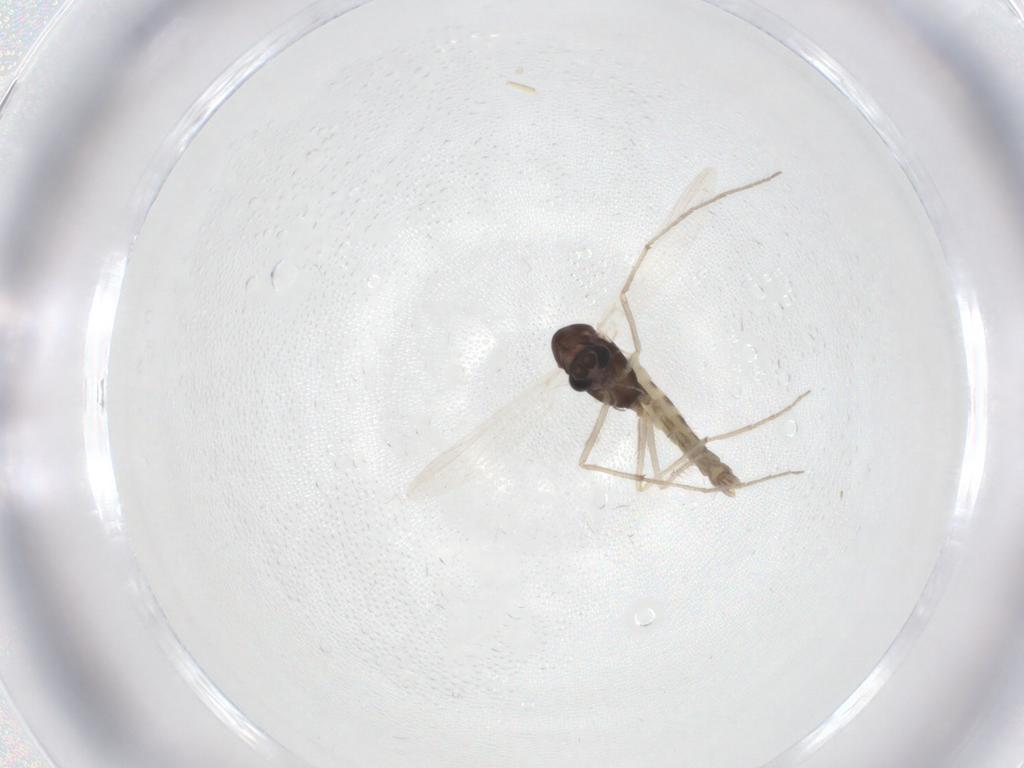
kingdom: Animalia
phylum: Arthropoda
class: Insecta
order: Diptera
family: Chironomidae
